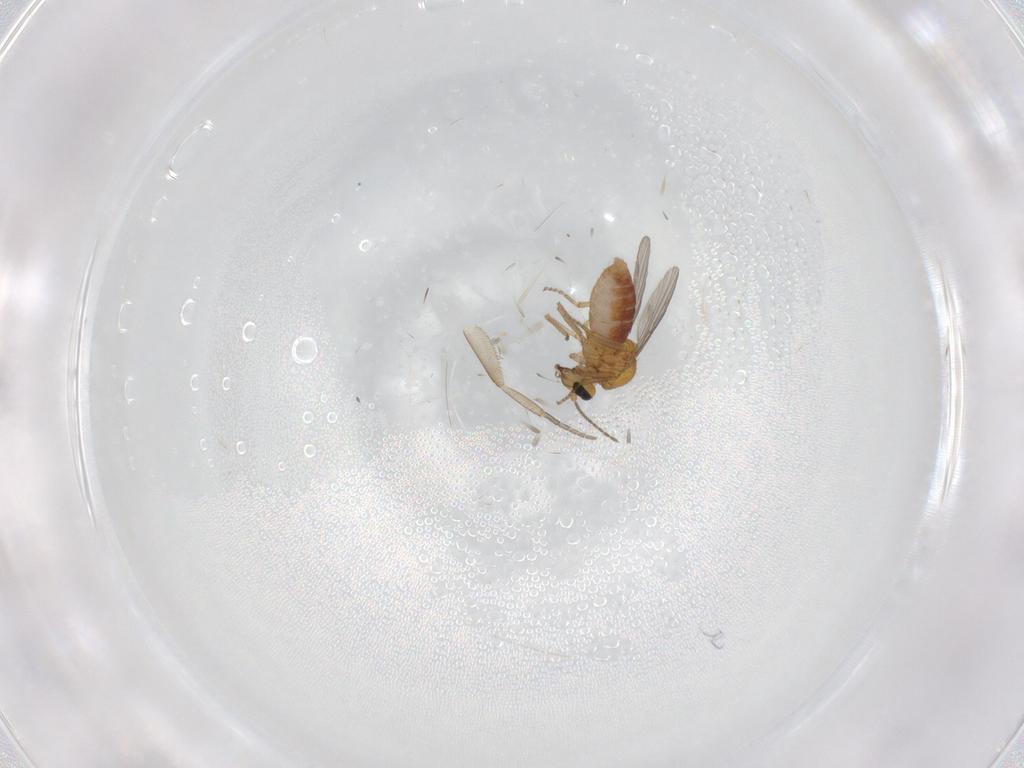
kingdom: Animalia
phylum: Arthropoda
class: Insecta
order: Diptera
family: Ceratopogonidae
